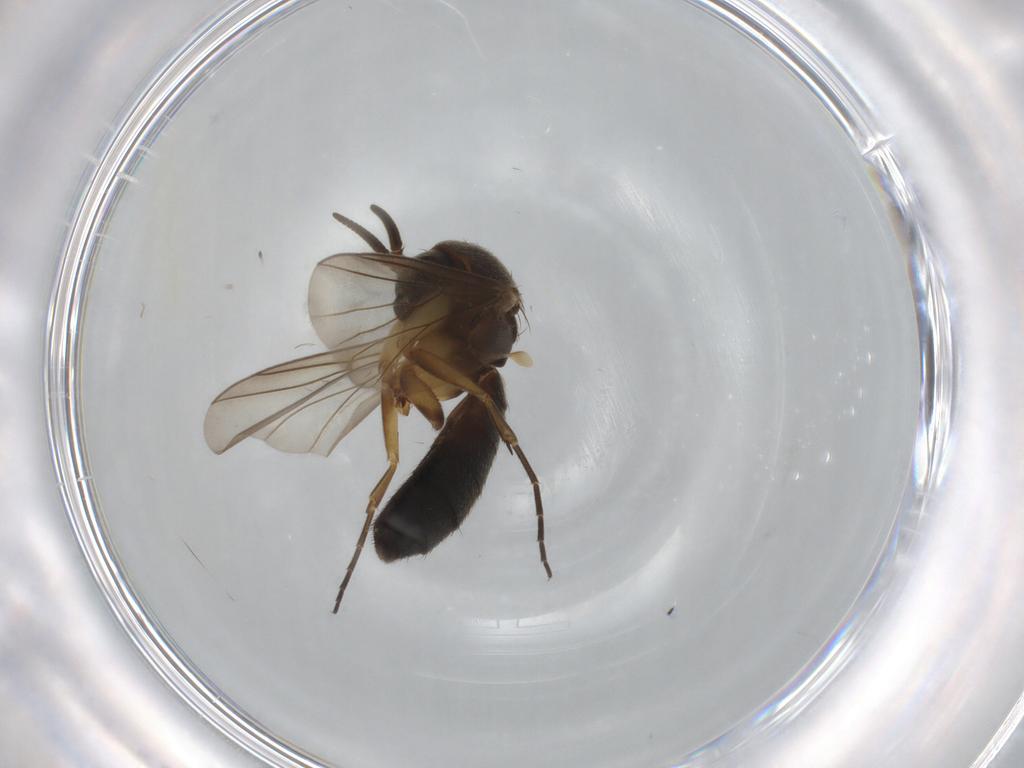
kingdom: Animalia
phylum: Arthropoda
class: Insecta
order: Diptera
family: Mycetophilidae
